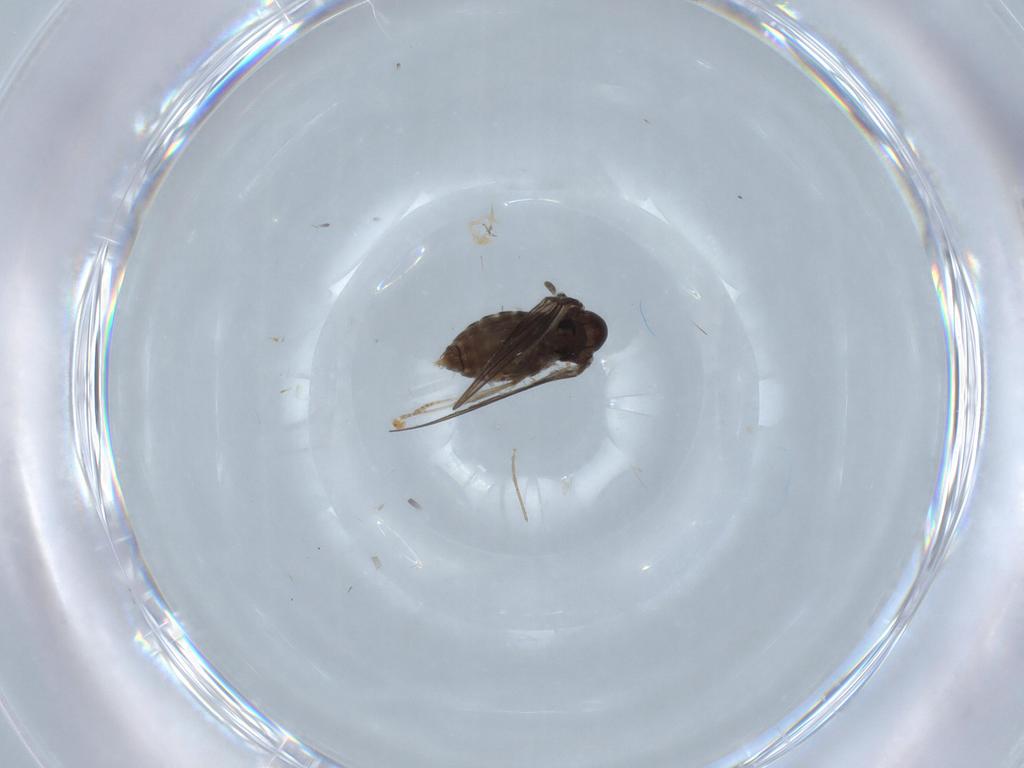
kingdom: Animalia
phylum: Arthropoda
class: Insecta
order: Diptera
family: Psychodidae
